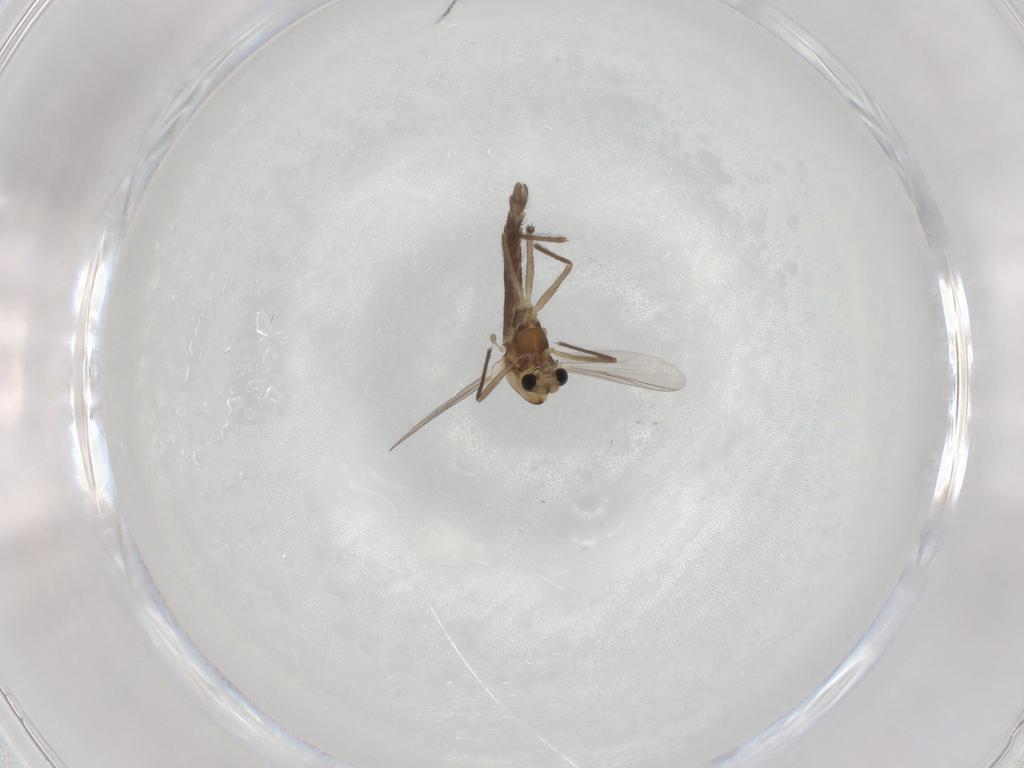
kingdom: Animalia
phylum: Arthropoda
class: Insecta
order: Diptera
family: Chironomidae
